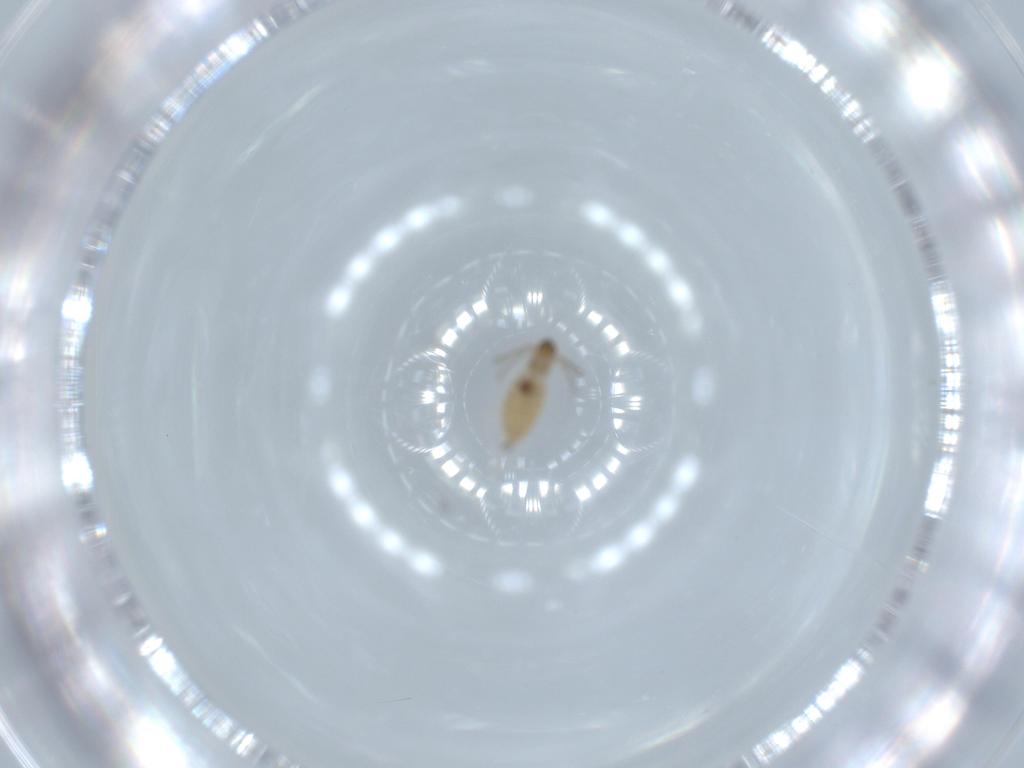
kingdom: Animalia
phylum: Arthropoda
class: Insecta
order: Diptera
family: Cecidomyiidae
